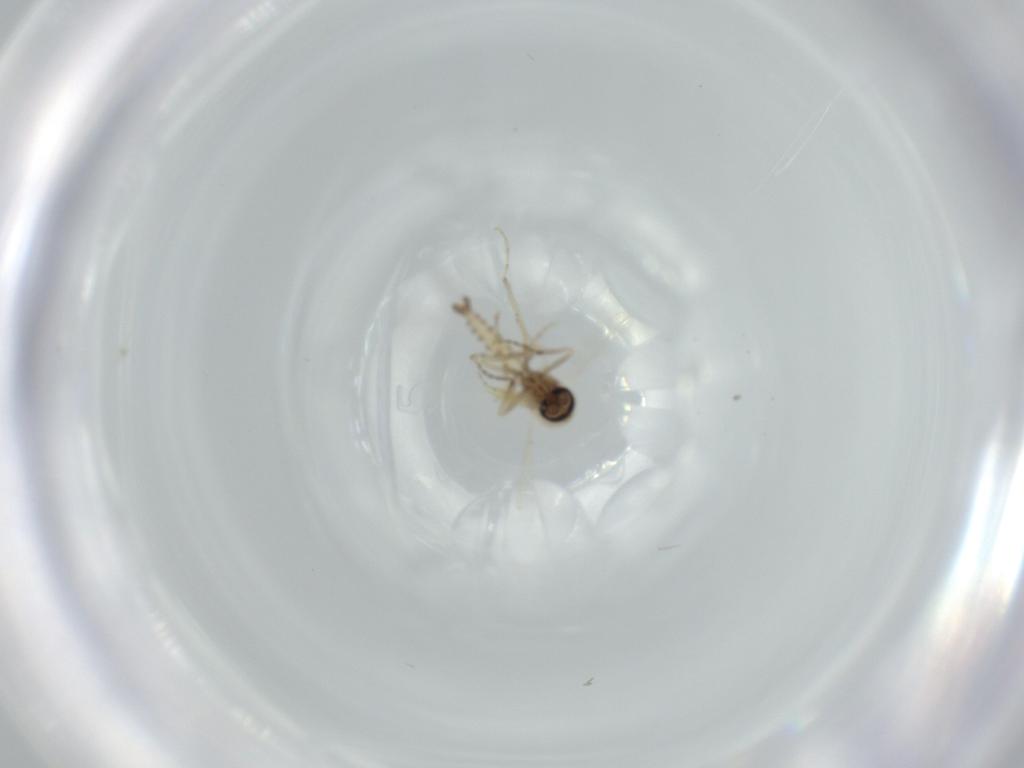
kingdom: Animalia
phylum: Arthropoda
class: Insecta
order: Diptera
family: Cecidomyiidae
